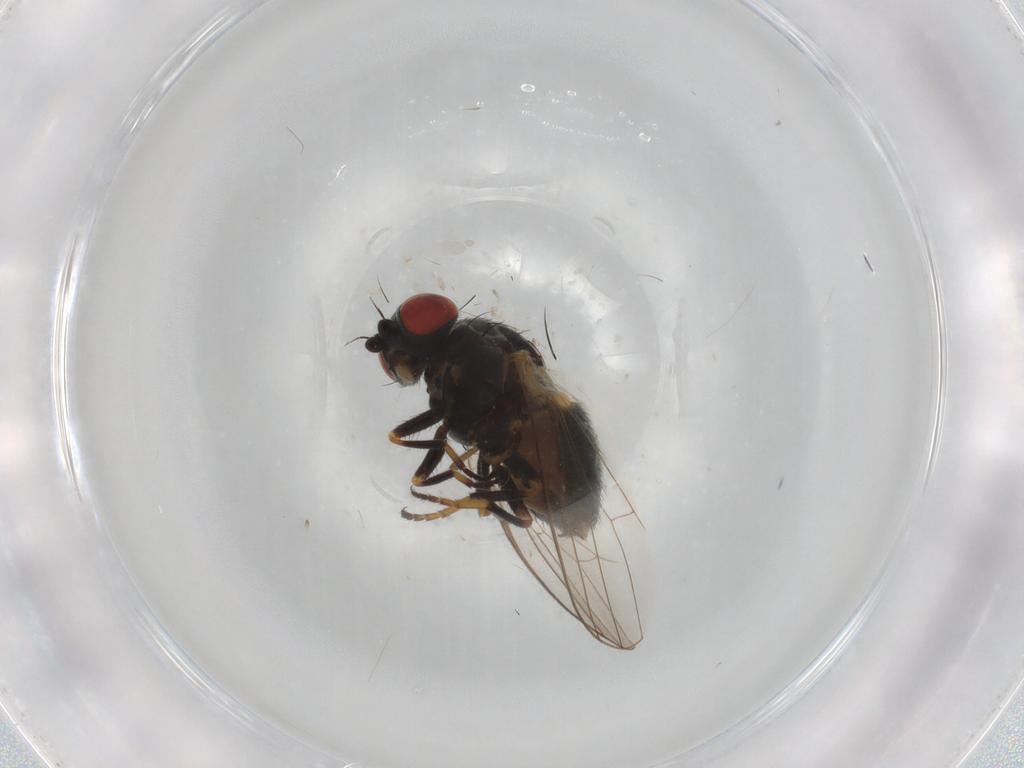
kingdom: Animalia
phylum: Arthropoda
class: Insecta
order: Diptera
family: Chamaemyiidae
